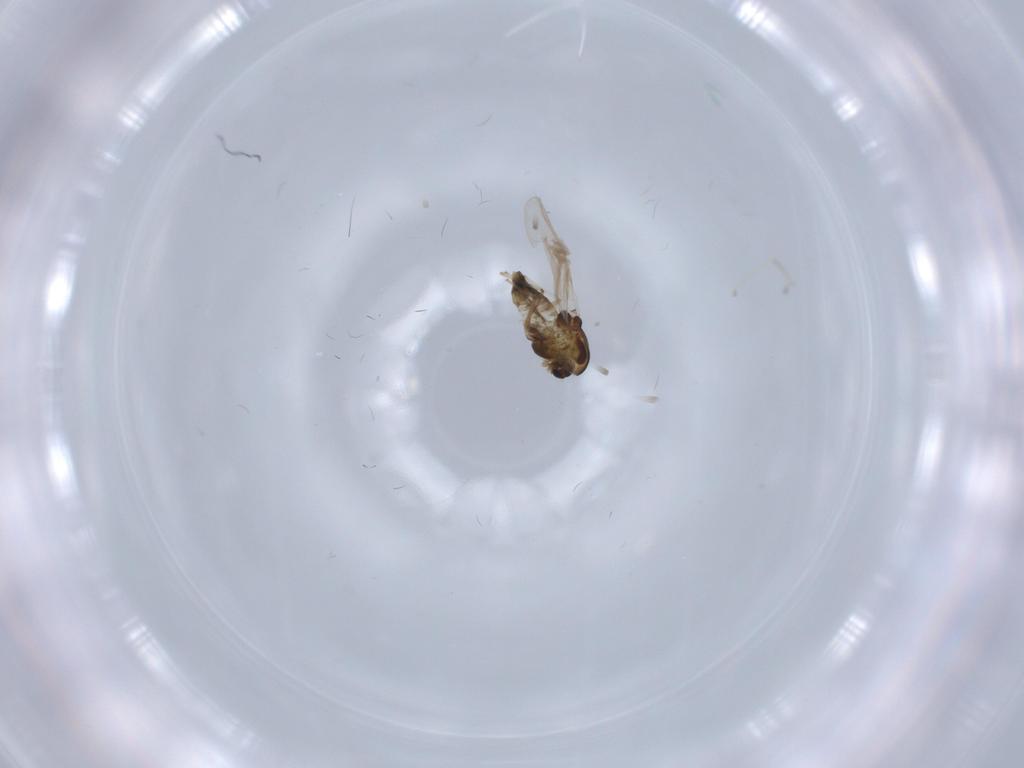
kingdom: Animalia
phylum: Arthropoda
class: Insecta
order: Diptera
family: Chironomidae
